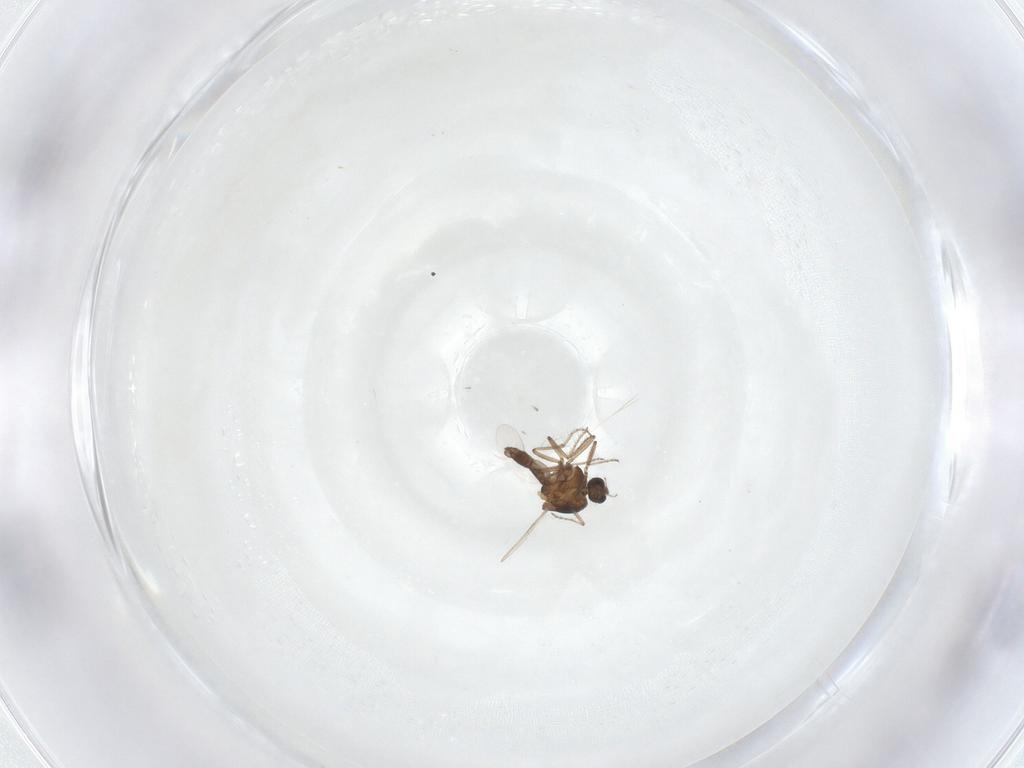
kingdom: Animalia
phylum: Arthropoda
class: Insecta
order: Diptera
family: Ceratopogonidae
